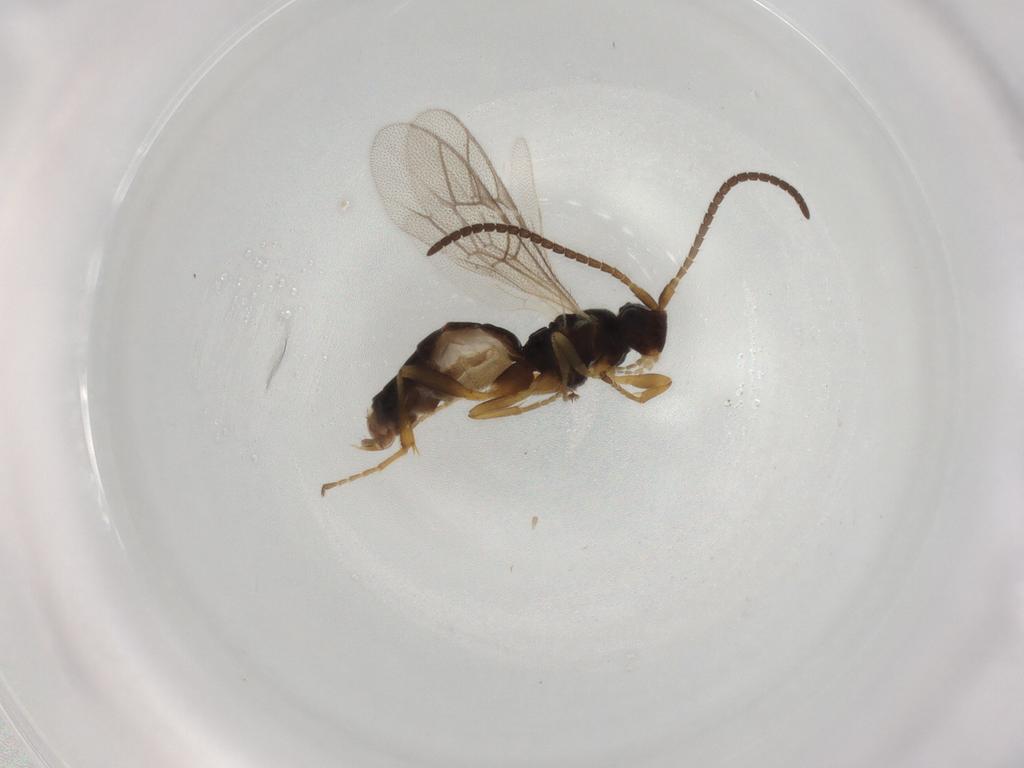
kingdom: Animalia
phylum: Arthropoda
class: Insecta
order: Hymenoptera
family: Ichneumonidae
